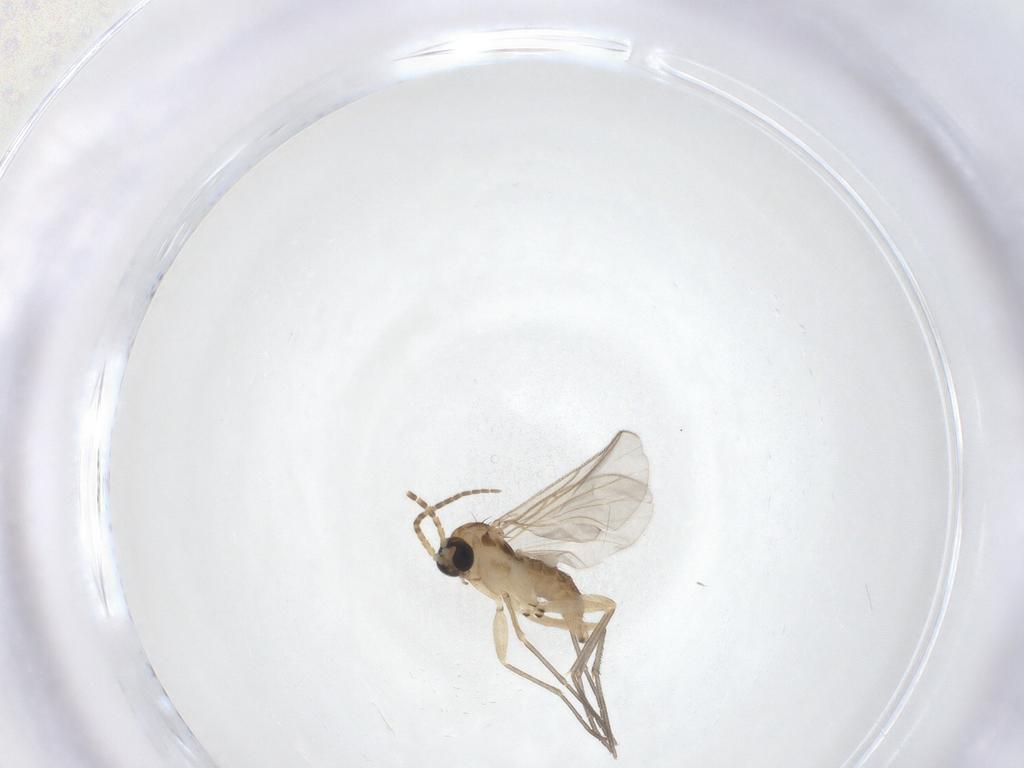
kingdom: Animalia
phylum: Arthropoda
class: Insecta
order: Diptera
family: Sciaridae
